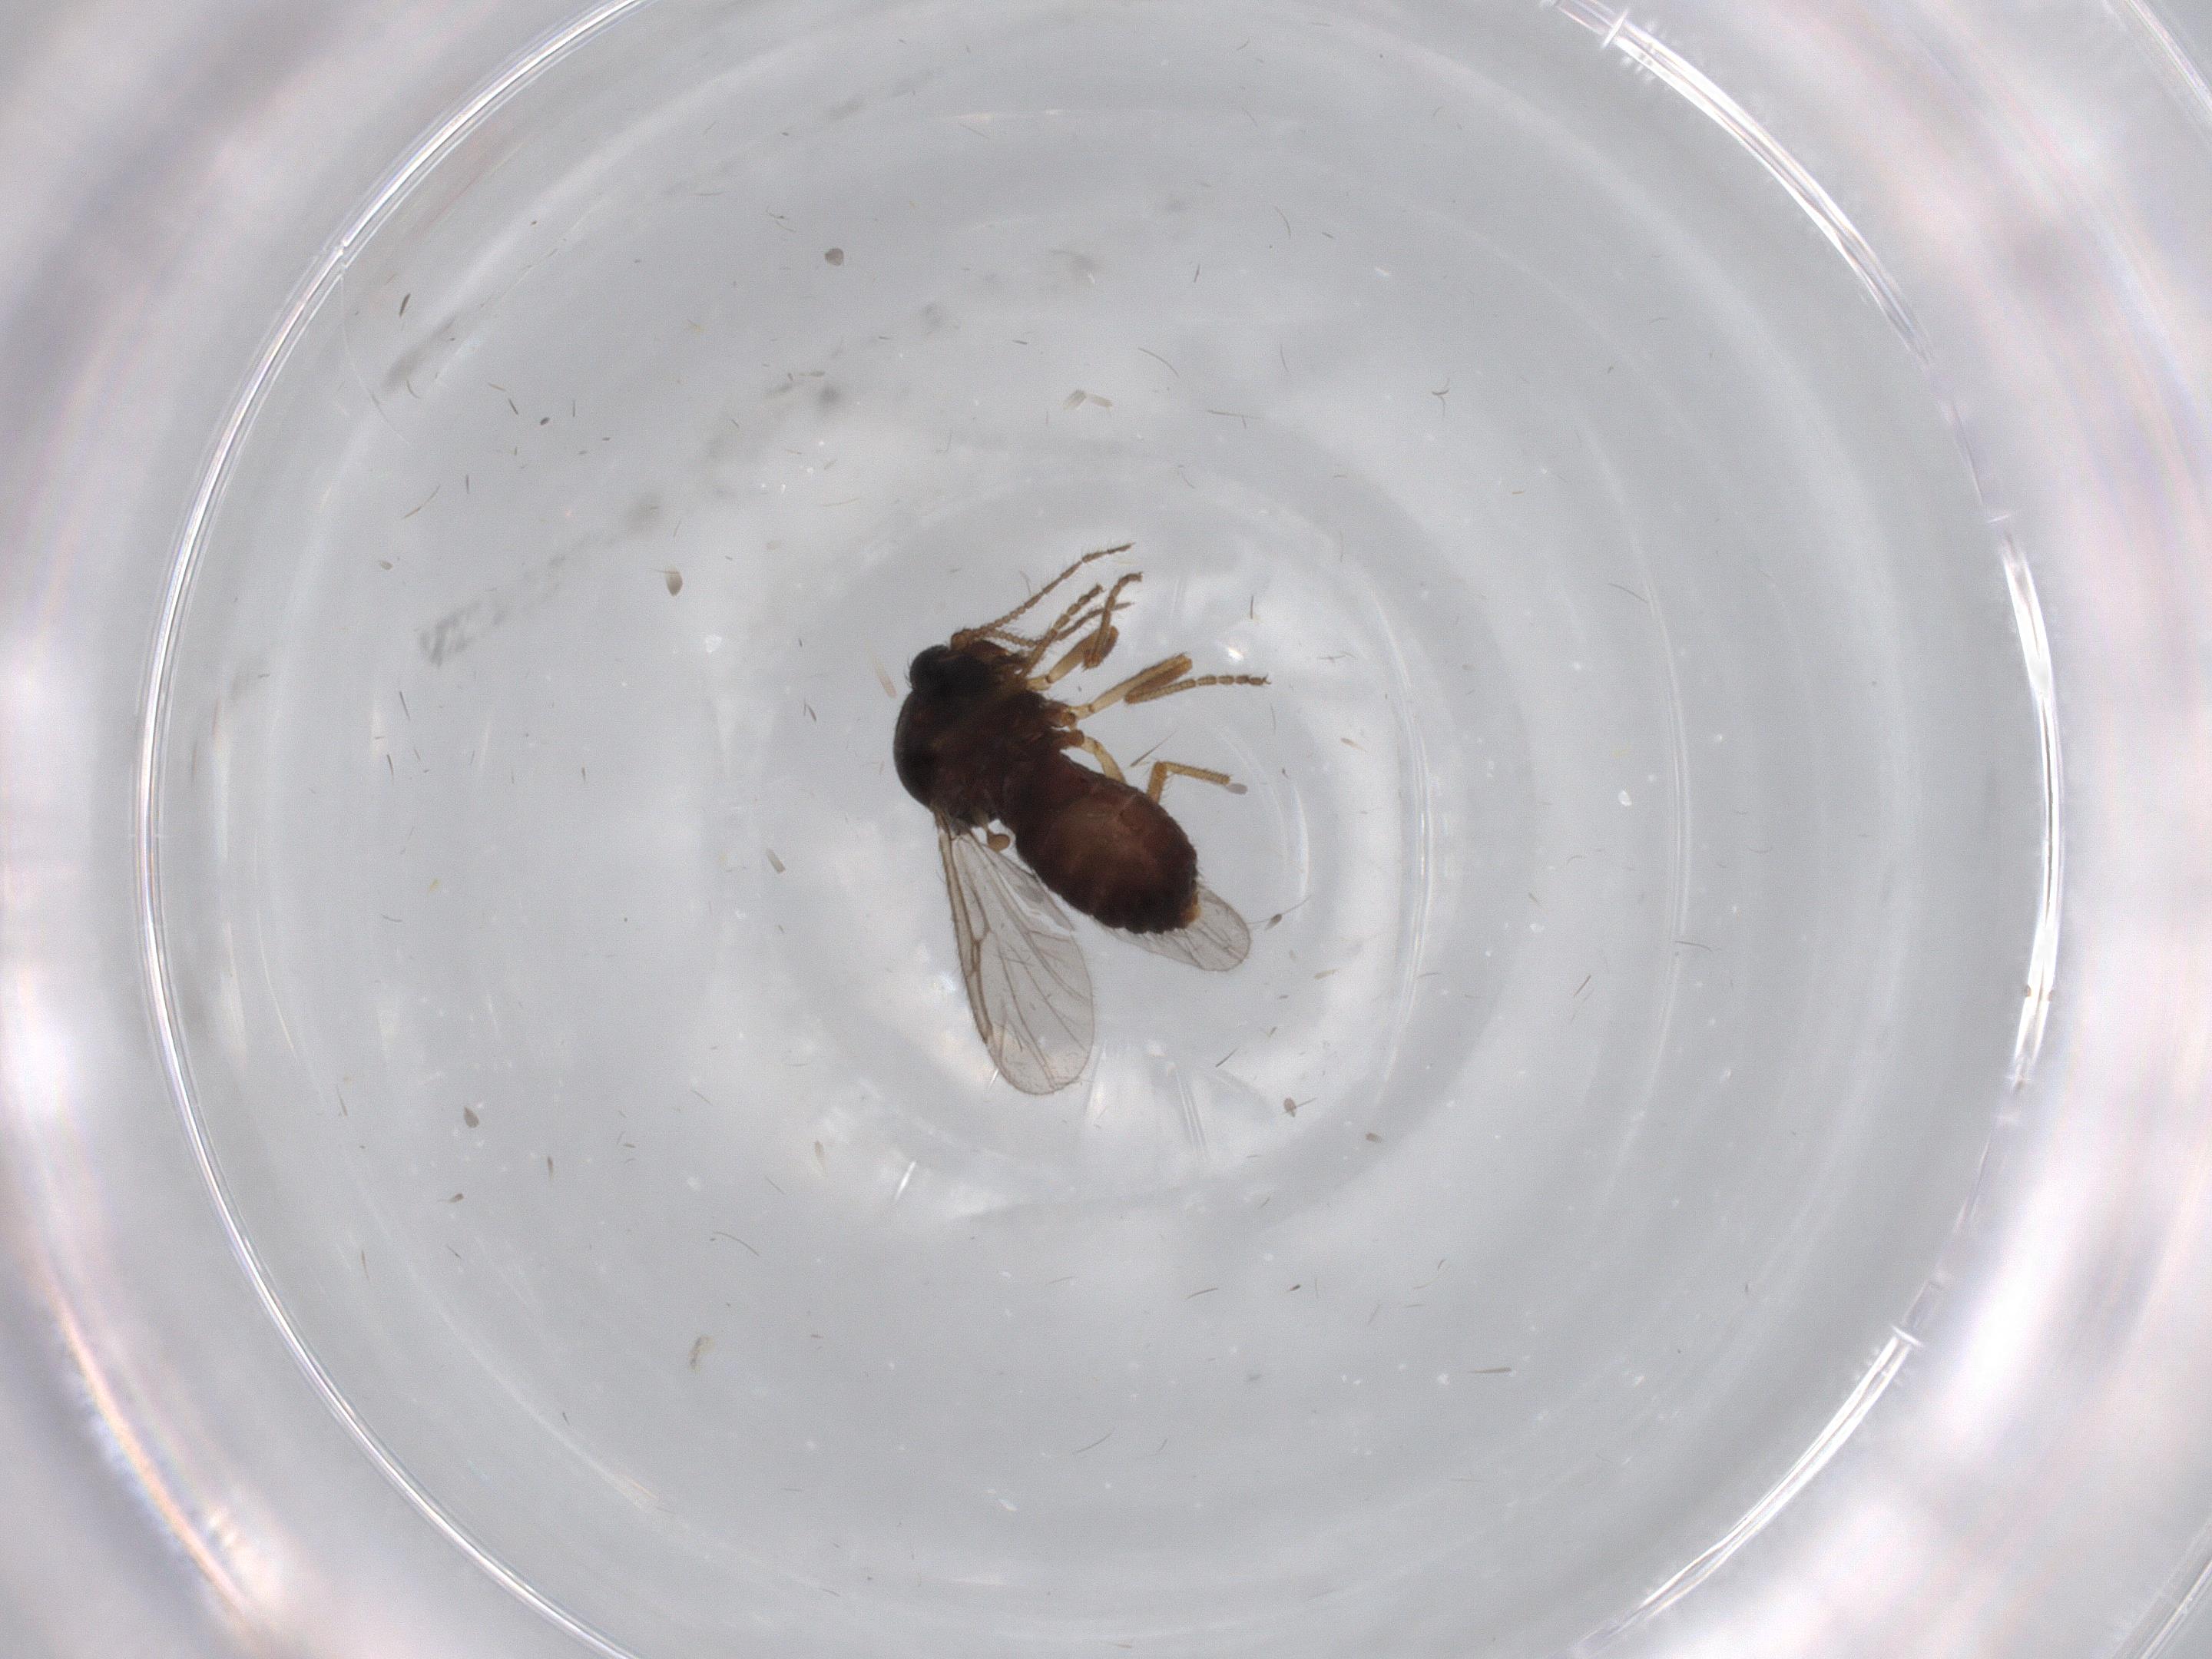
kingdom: Animalia
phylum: Arthropoda
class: Insecta
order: Diptera
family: Ceratopogonidae
